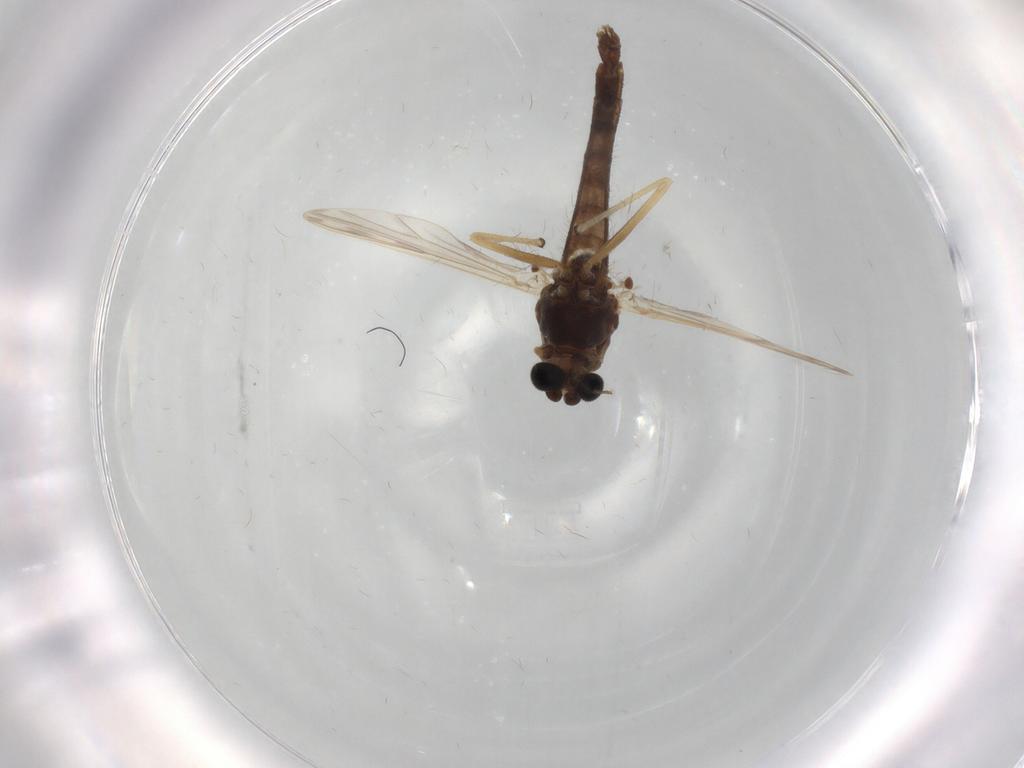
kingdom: Animalia
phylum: Arthropoda
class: Insecta
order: Diptera
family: Chironomidae
